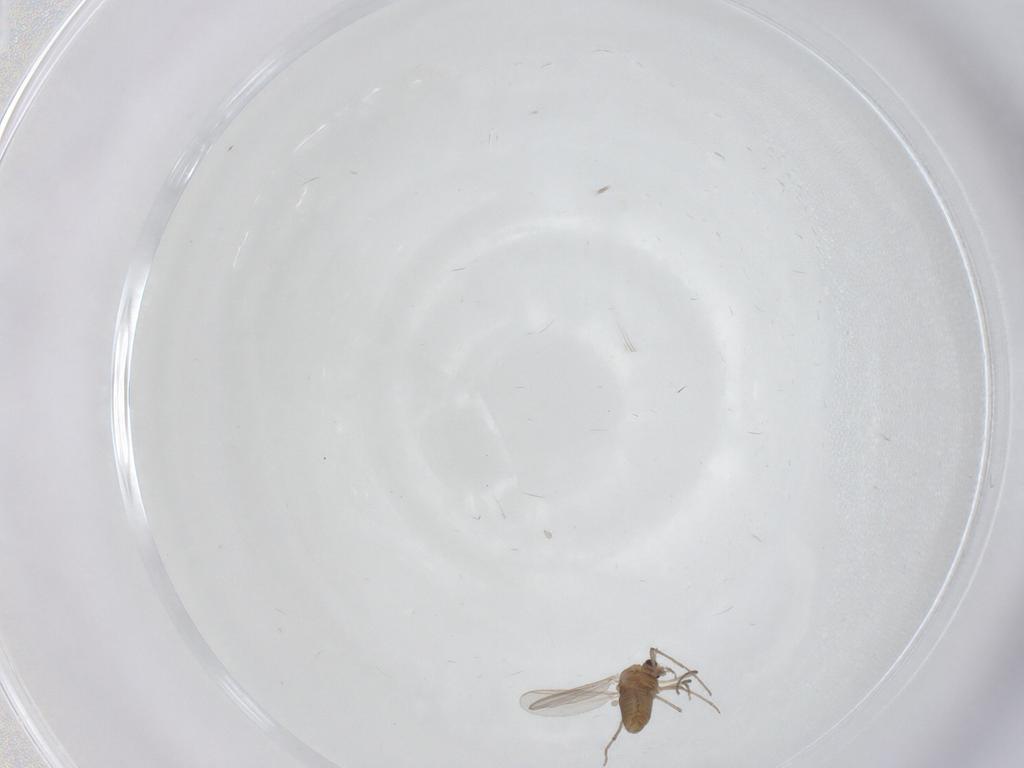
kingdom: Animalia
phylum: Arthropoda
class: Insecta
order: Diptera
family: Chironomidae
